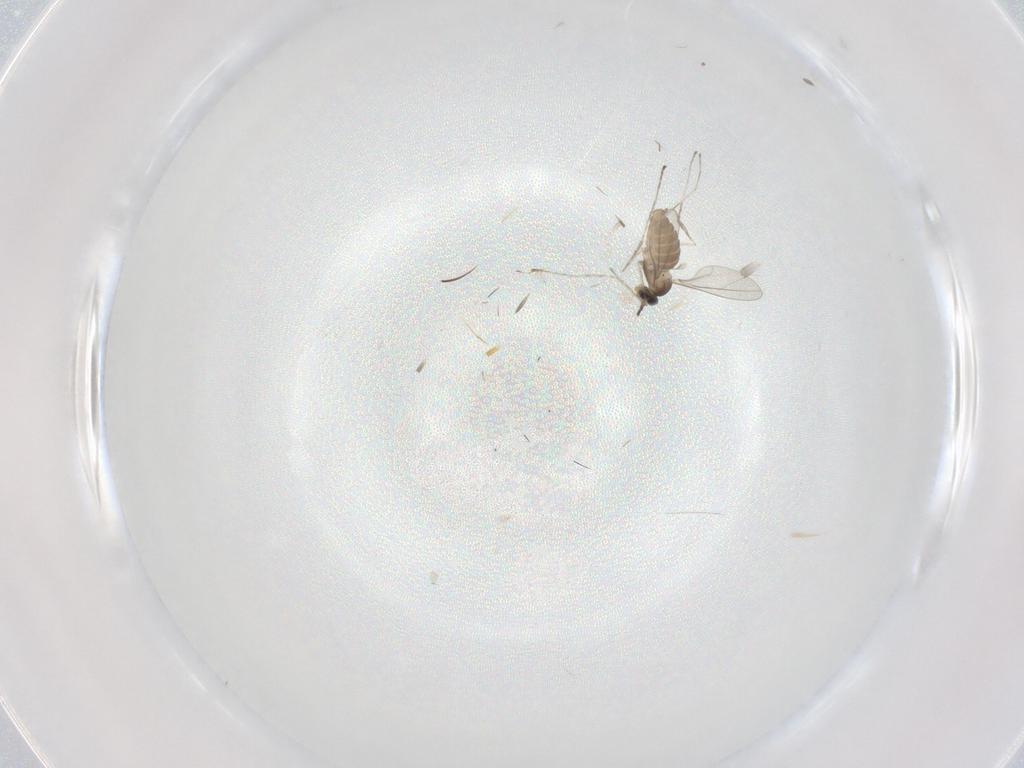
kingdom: Animalia
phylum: Arthropoda
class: Insecta
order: Diptera
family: Cecidomyiidae
